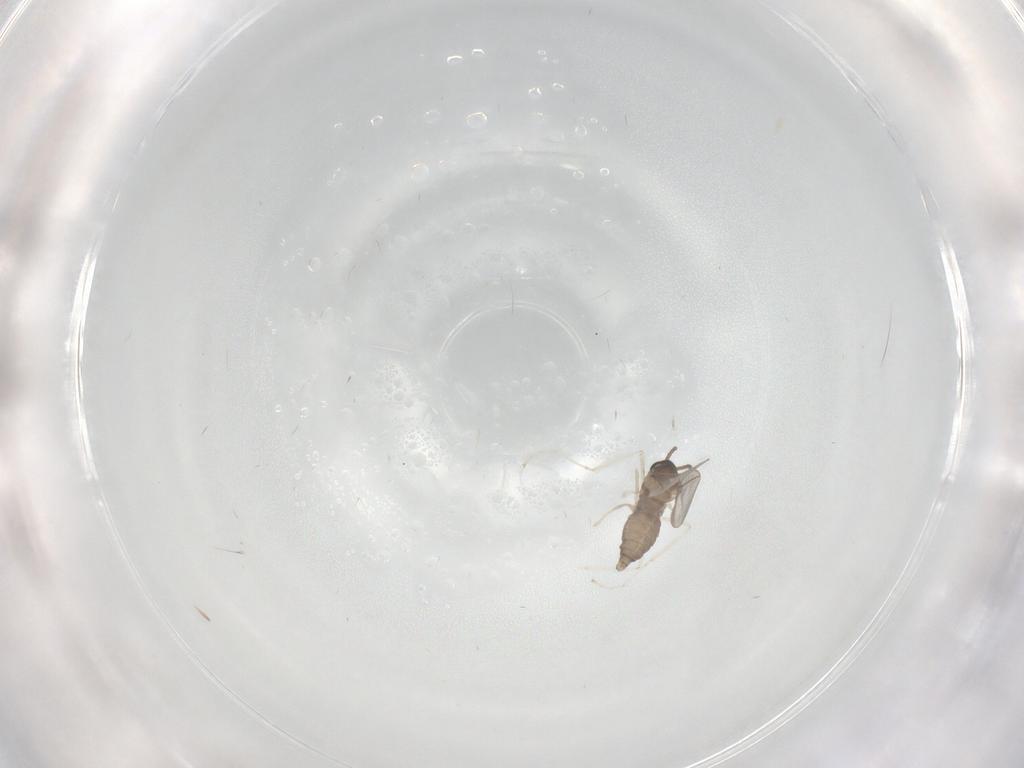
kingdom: Animalia
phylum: Arthropoda
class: Insecta
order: Diptera
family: Cecidomyiidae
